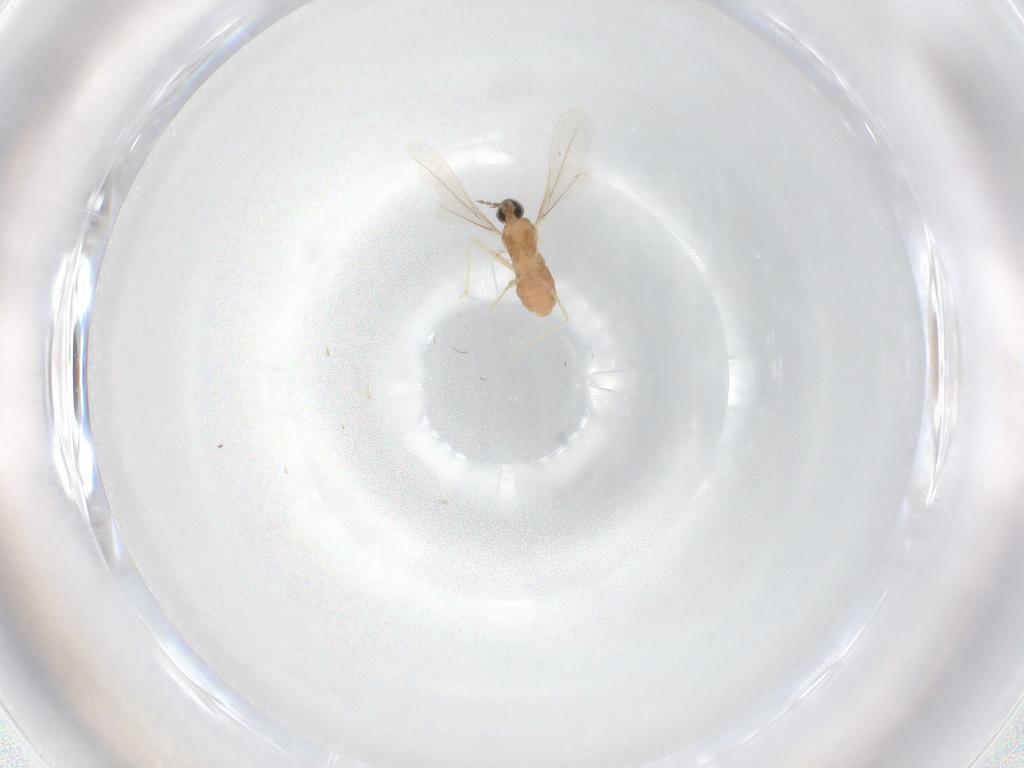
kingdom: Animalia
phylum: Arthropoda
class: Insecta
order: Diptera
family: Cecidomyiidae
